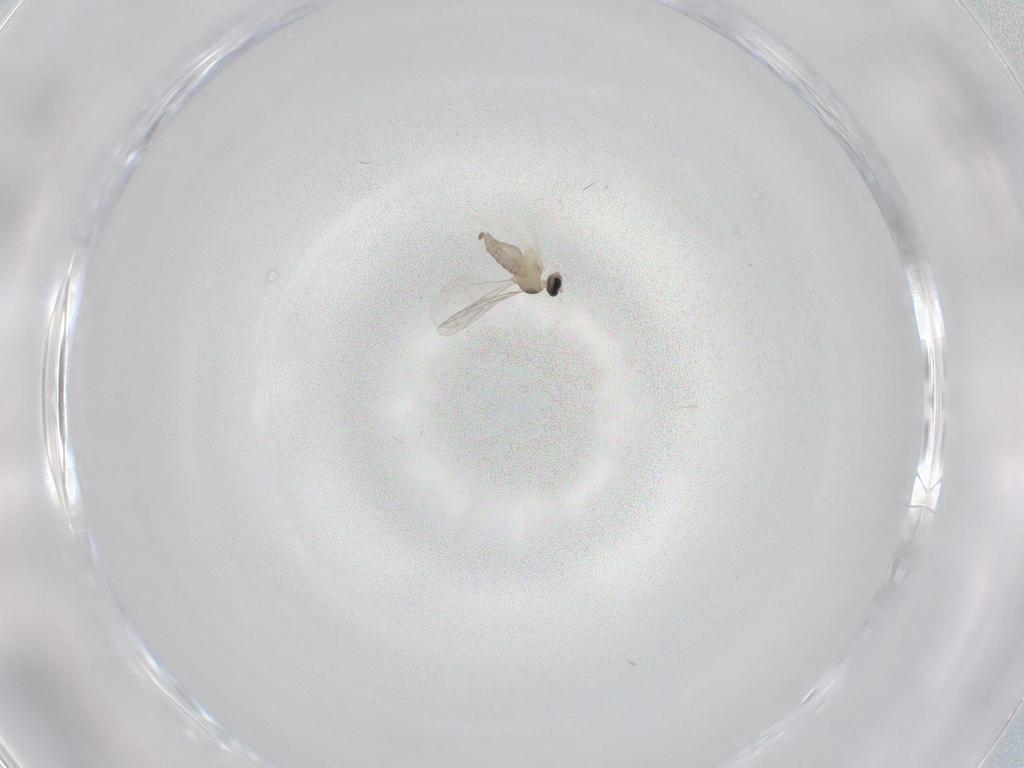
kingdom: Animalia
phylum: Arthropoda
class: Insecta
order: Diptera
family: Cecidomyiidae
